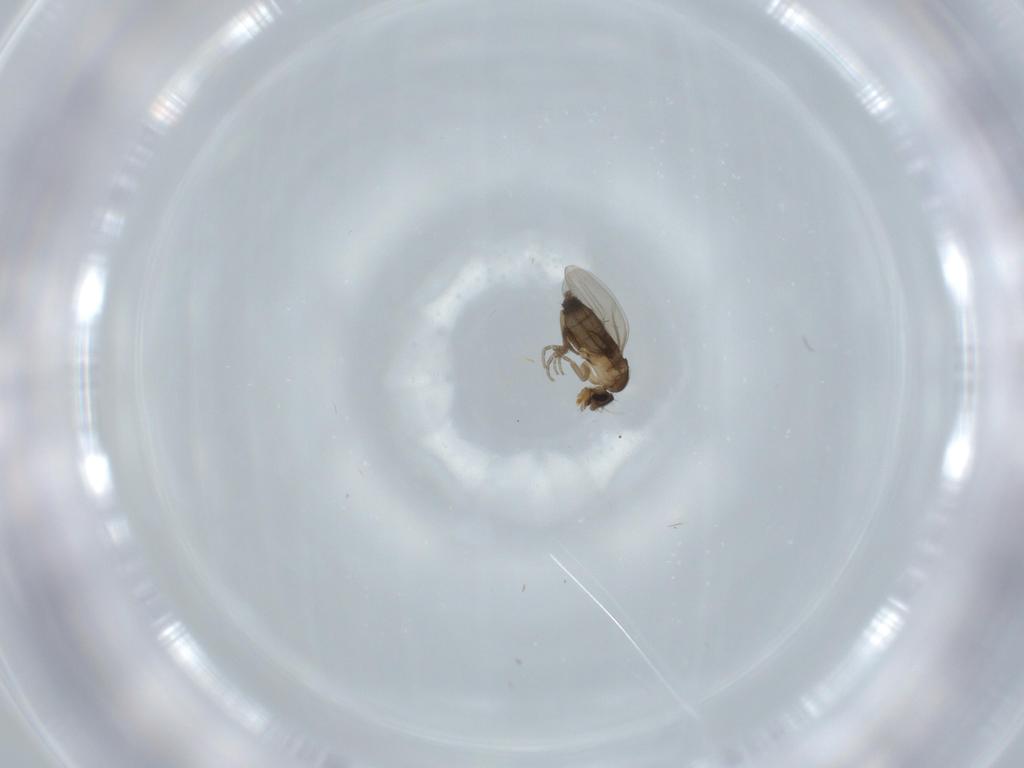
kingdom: Animalia
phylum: Arthropoda
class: Insecta
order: Diptera
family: Phoridae
